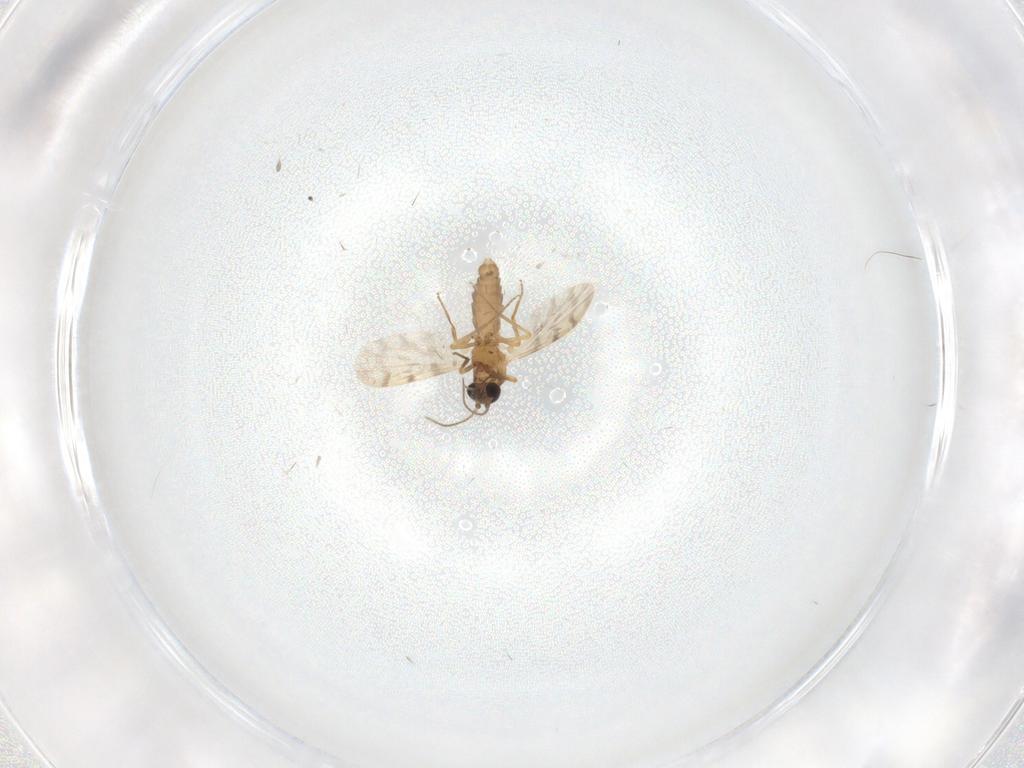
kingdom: Animalia
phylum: Arthropoda
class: Insecta
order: Diptera
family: Ceratopogonidae
